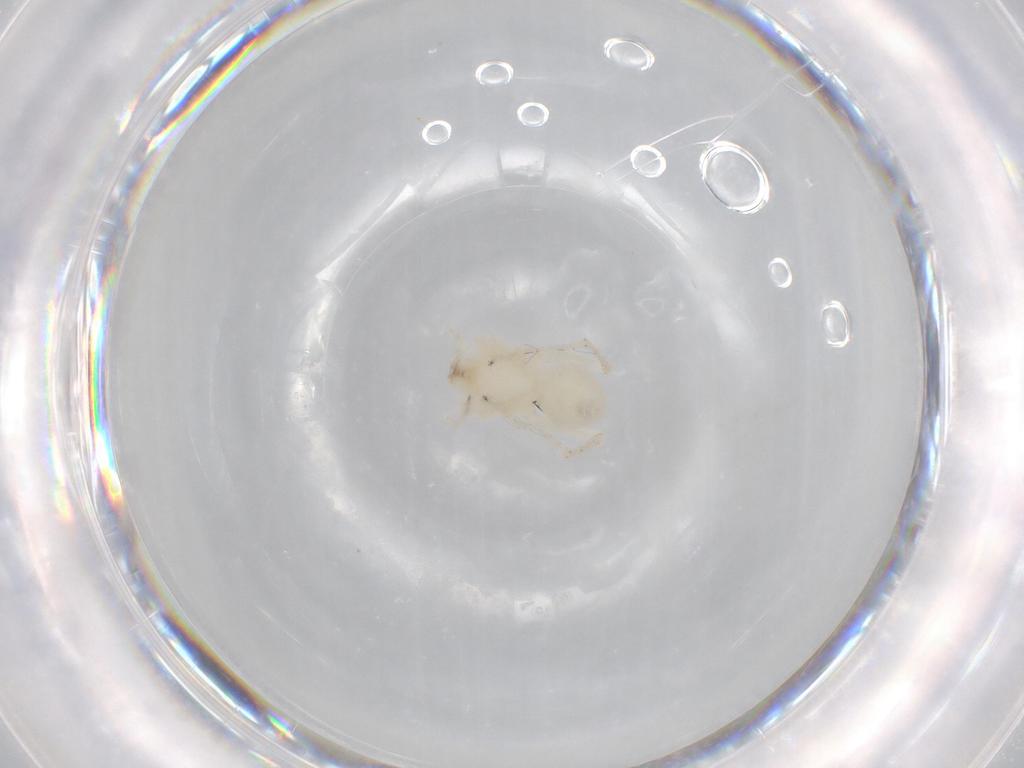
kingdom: Animalia
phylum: Arthropoda
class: Arachnida
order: Araneae
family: Anyphaenidae
